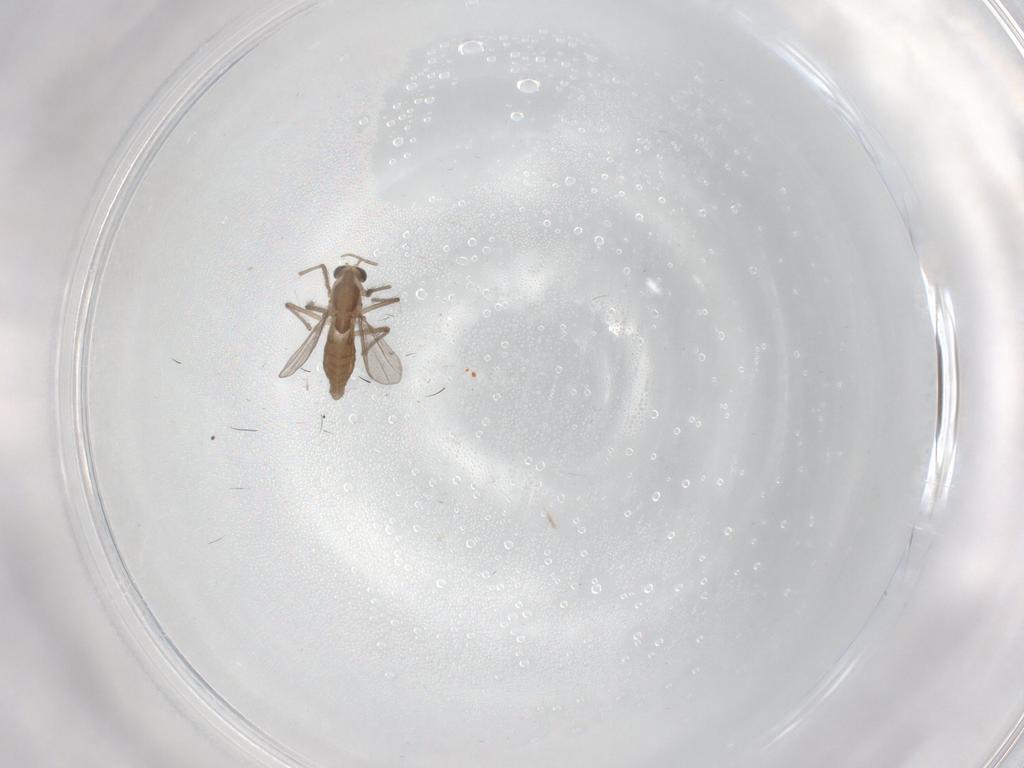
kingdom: Animalia
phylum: Arthropoda
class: Insecta
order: Diptera
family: Chironomidae
